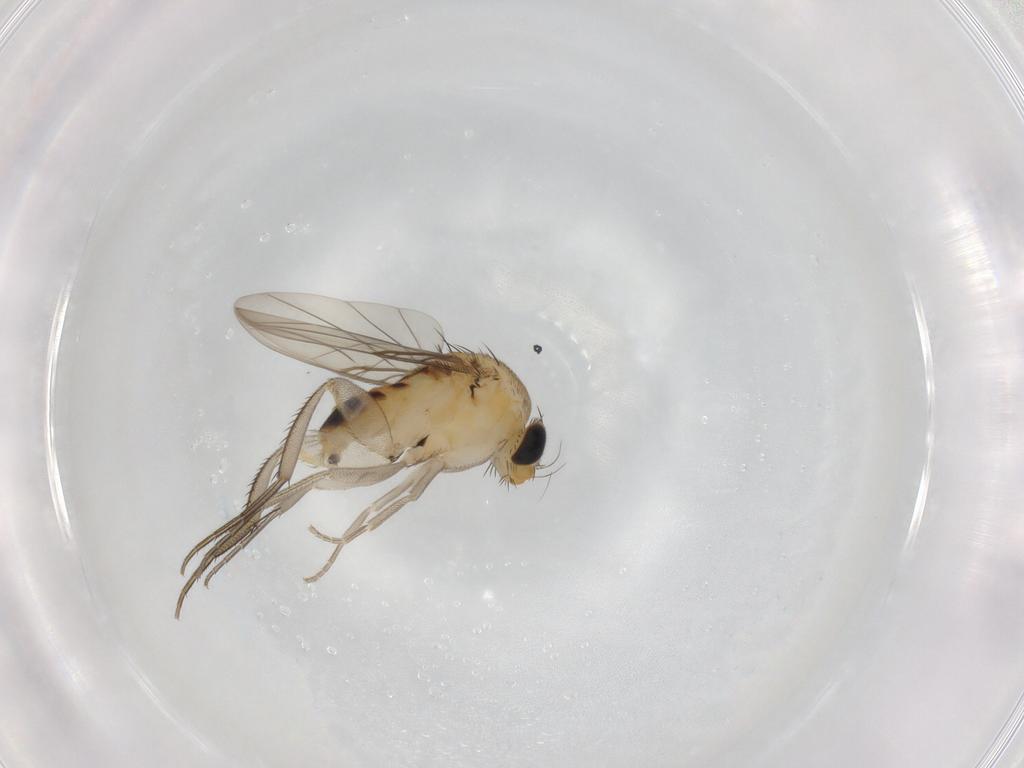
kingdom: Animalia
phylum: Arthropoda
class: Insecta
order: Diptera
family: Phoridae
